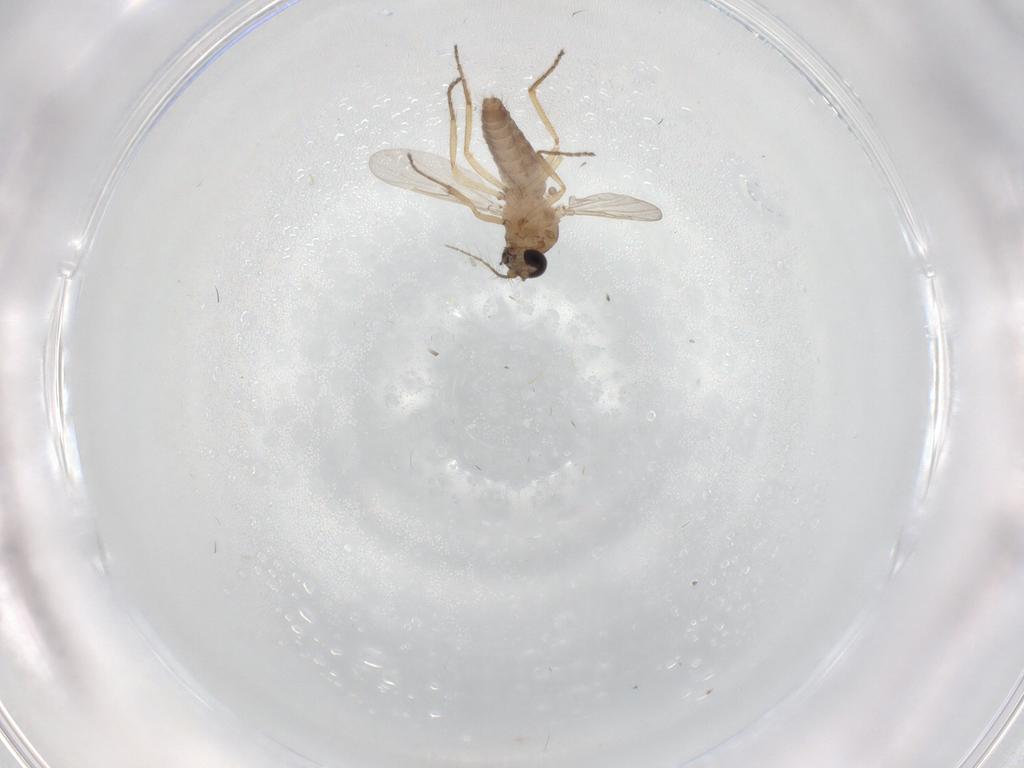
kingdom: Animalia
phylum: Arthropoda
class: Insecta
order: Diptera
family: Ceratopogonidae
